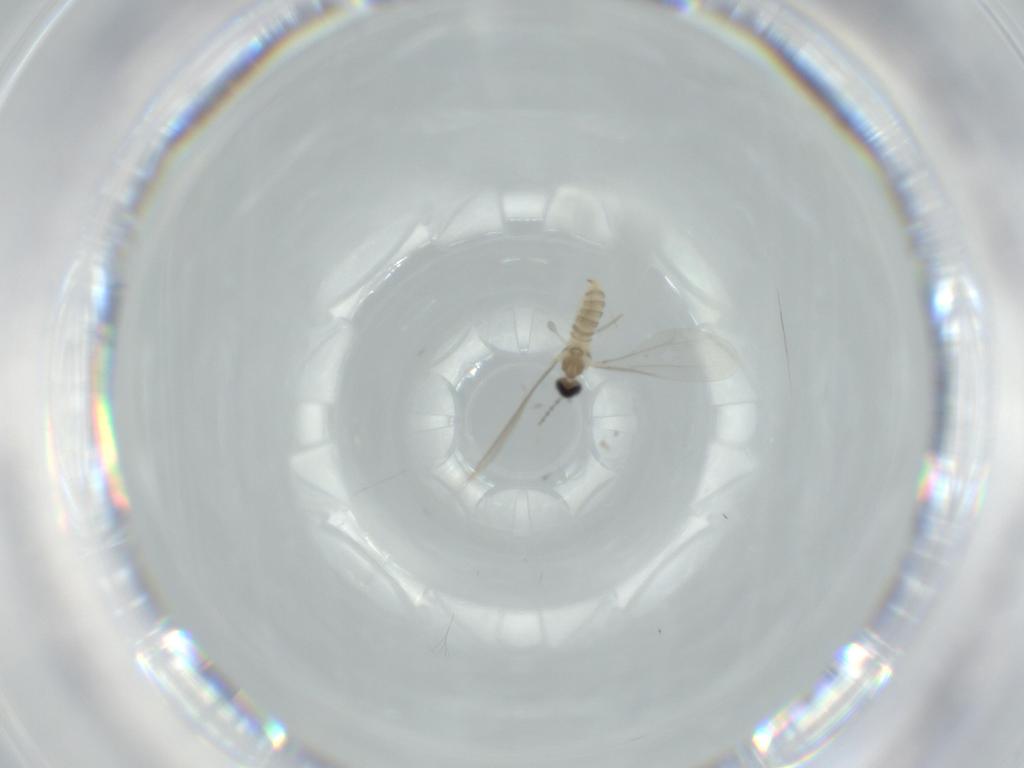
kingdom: Animalia
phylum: Arthropoda
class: Insecta
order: Diptera
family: Cecidomyiidae
